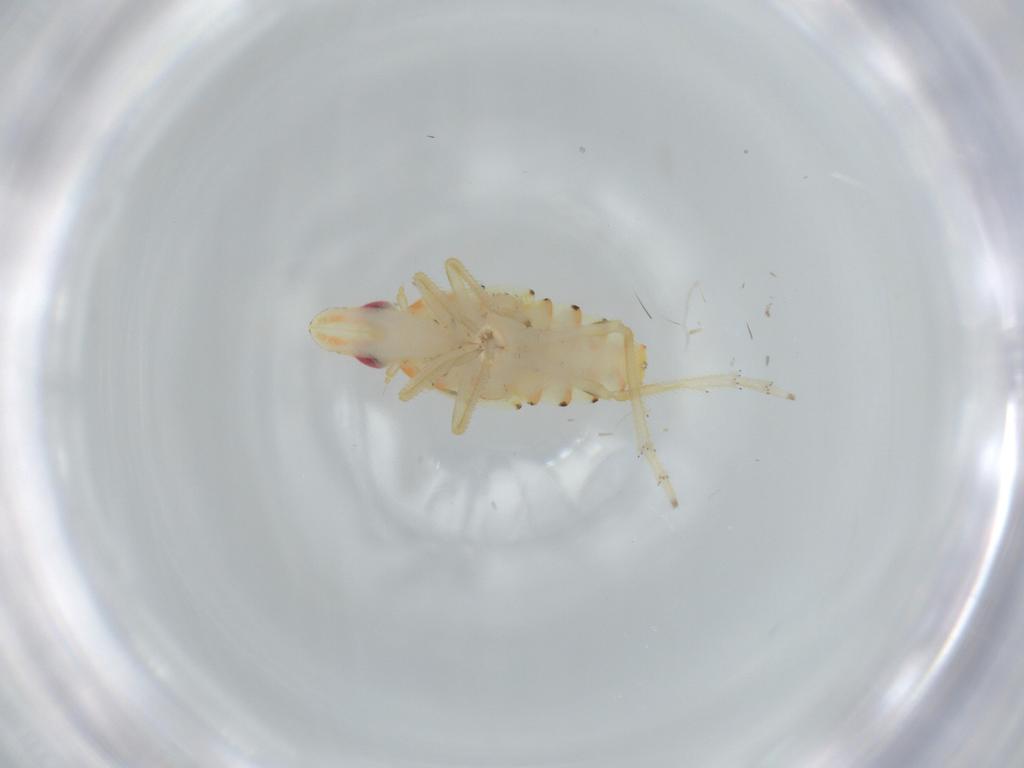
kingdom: Animalia
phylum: Arthropoda
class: Insecta
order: Hemiptera
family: Tropiduchidae
